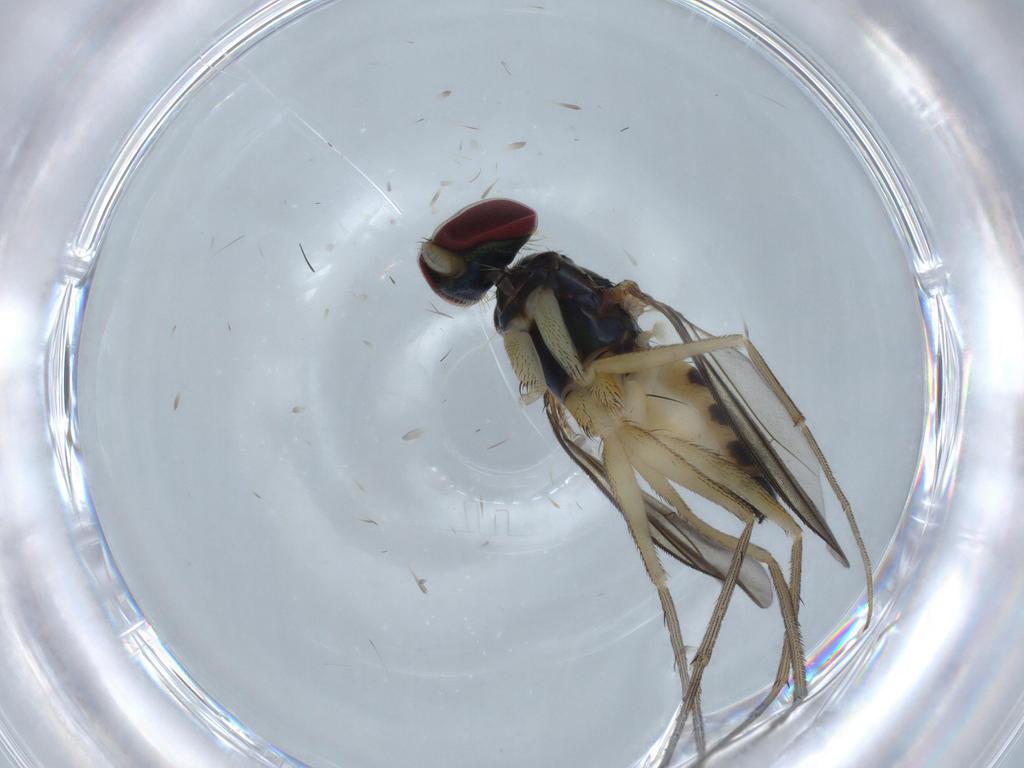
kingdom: Animalia
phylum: Arthropoda
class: Insecta
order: Diptera
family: Dolichopodidae
